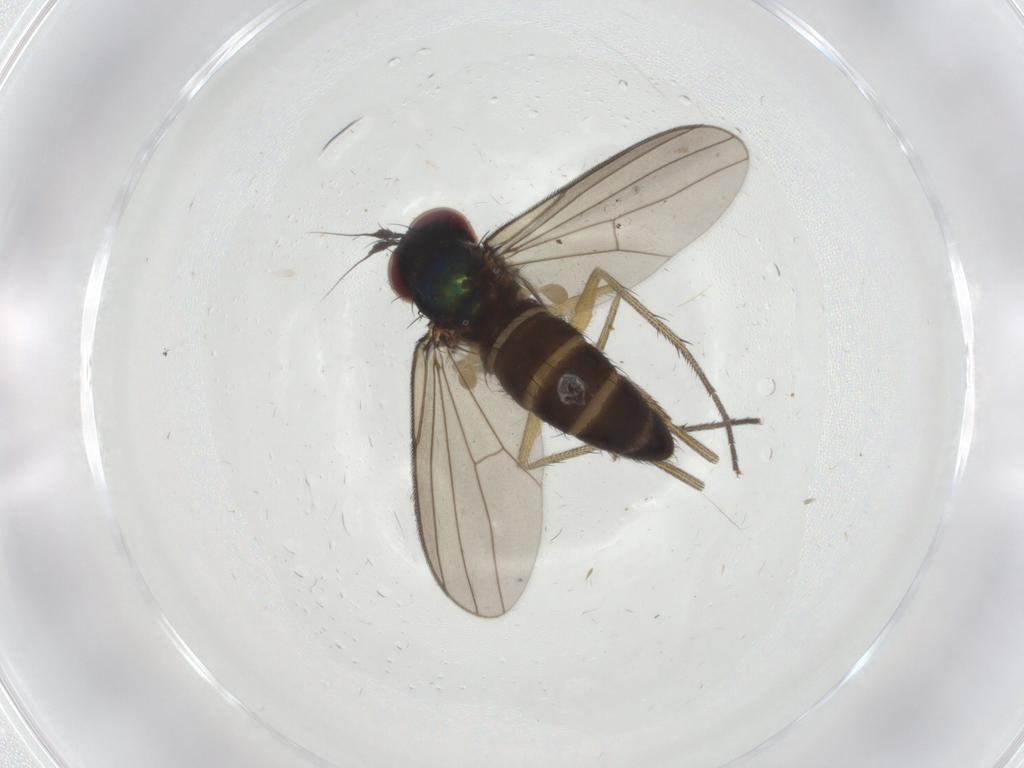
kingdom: Animalia
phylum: Arthropoda
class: Insecta
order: Diptera
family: Dolichopodidae
